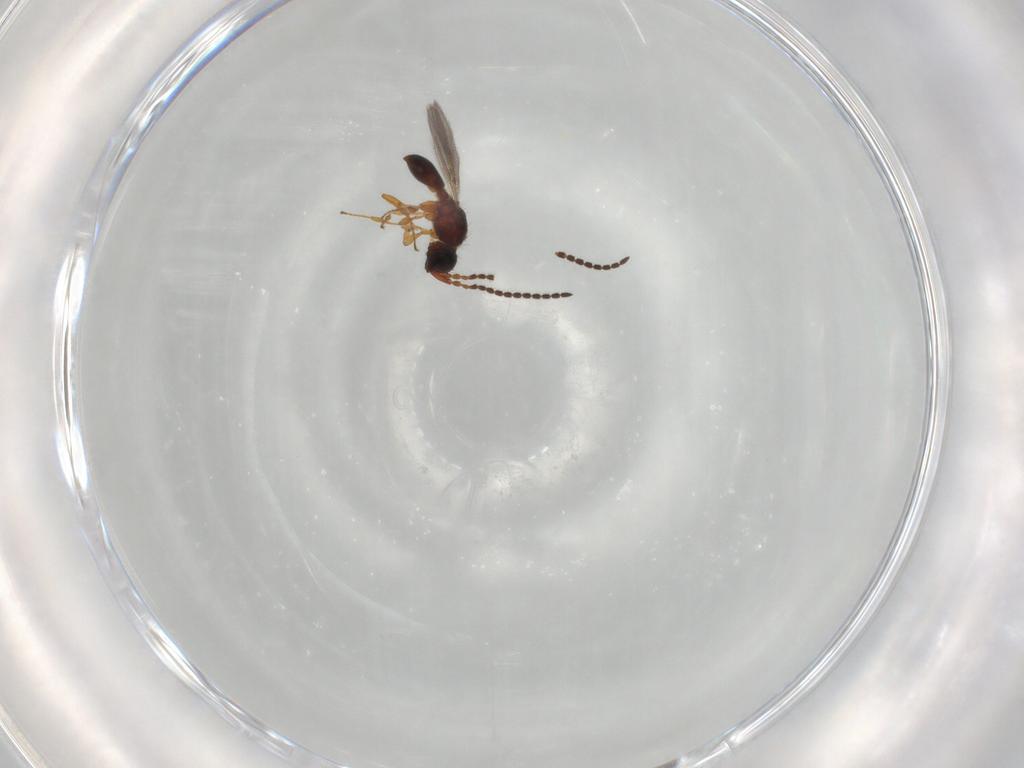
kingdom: Animalia
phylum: Arthropoda
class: Insecta
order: Hymenoptera
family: Diapriidae
